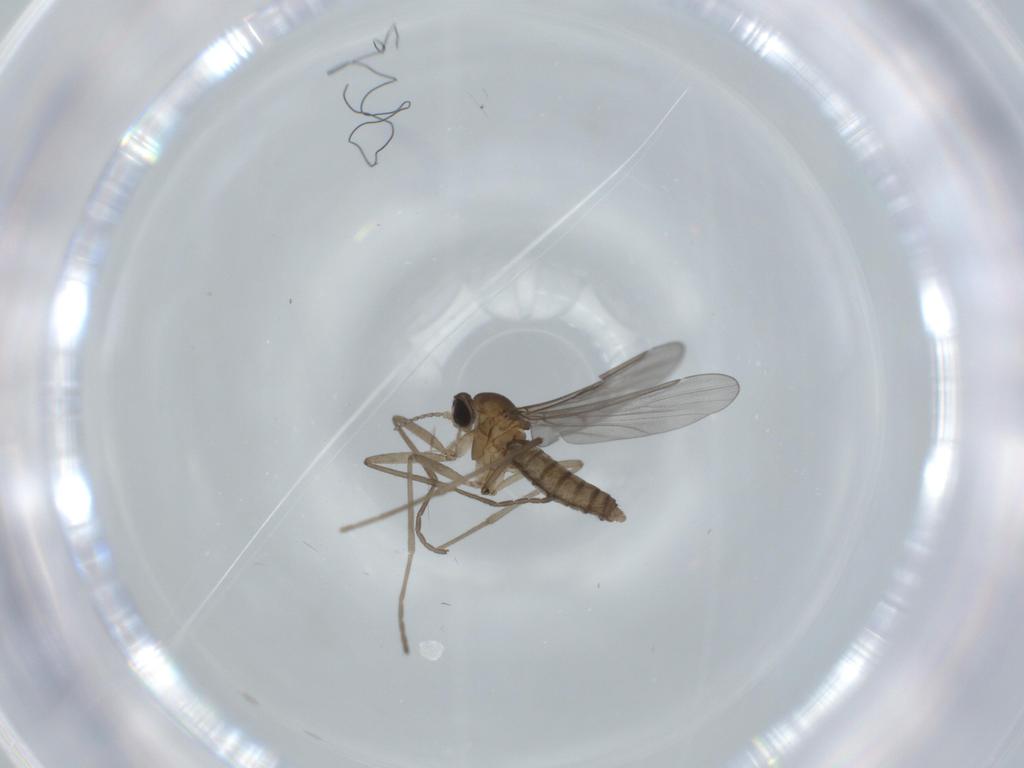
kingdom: Animalia
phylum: Arthropoda
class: Insecta
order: Diptera
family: Cecidomyiidae
